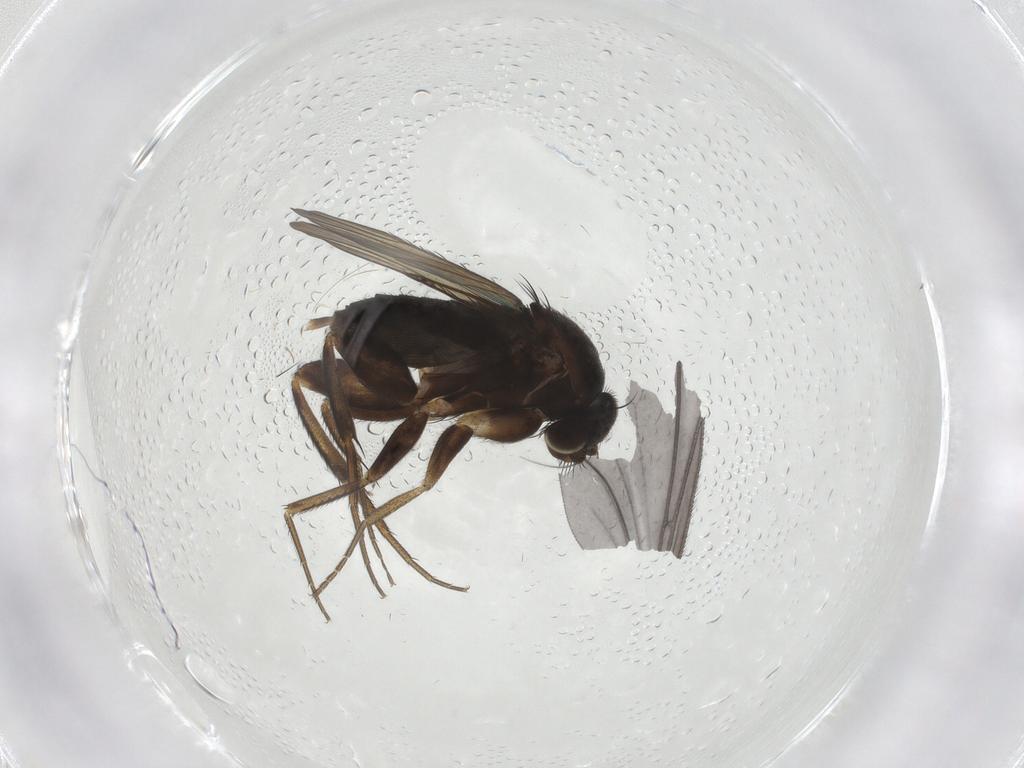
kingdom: Animalia
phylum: Arthropoda
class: Insecta
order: Diptera
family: Phoridae
